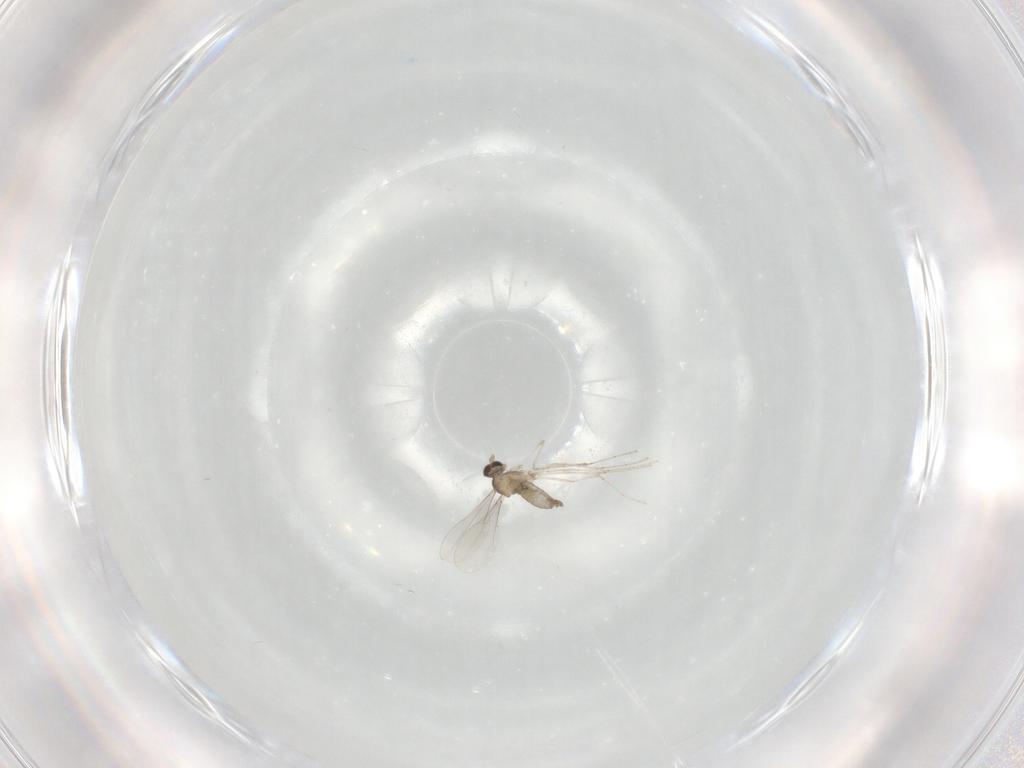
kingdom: Animalia
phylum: Arthropoda
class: Insecta
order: Diptera
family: Cecidomyiidae
